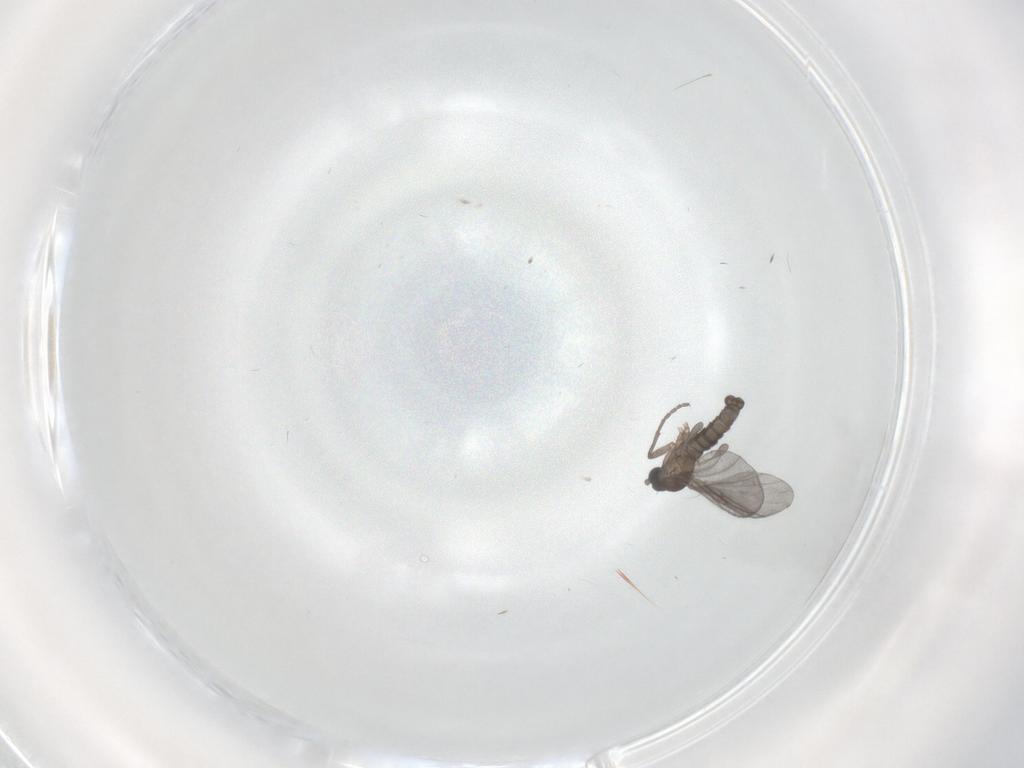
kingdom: Animalia
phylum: Arthropoda
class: Insecta
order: Diptera
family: Sciaridae
